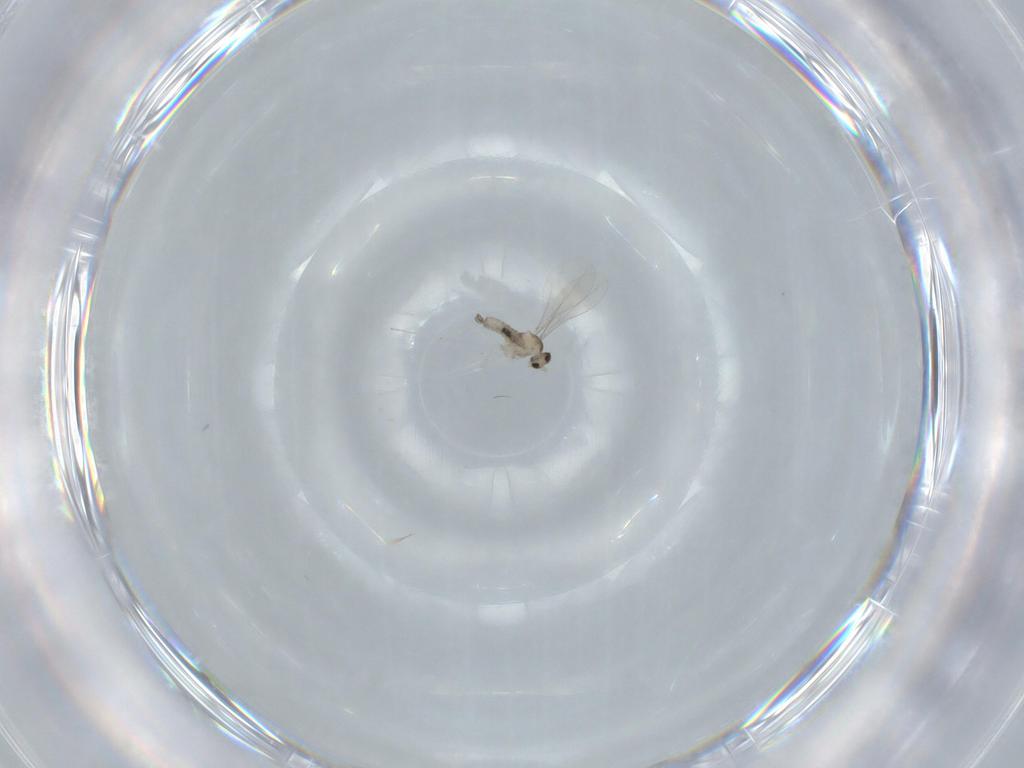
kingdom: Animalia
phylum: Arthropoda
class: Insecta
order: Diptera
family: Cecidomyiidae
